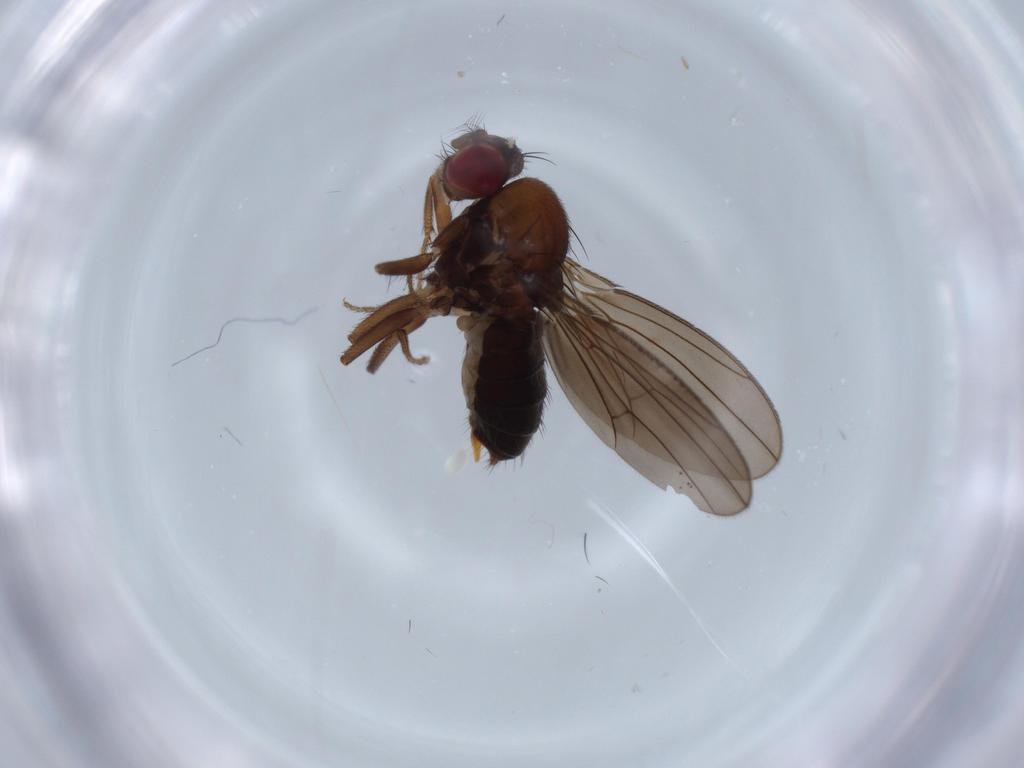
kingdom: Animalia
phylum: Arthropoda
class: Insecta
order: Diptera
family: Drosophilidae
